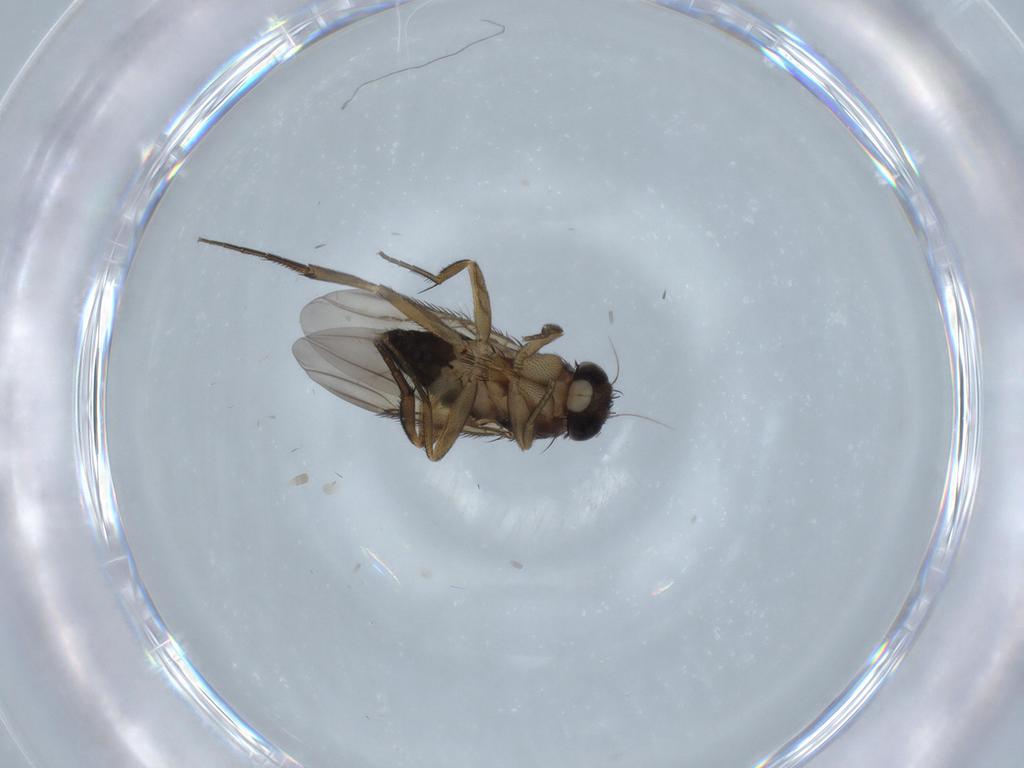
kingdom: Animalia
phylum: Arthropoda
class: Insecta
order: Diptera
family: Phoridae
